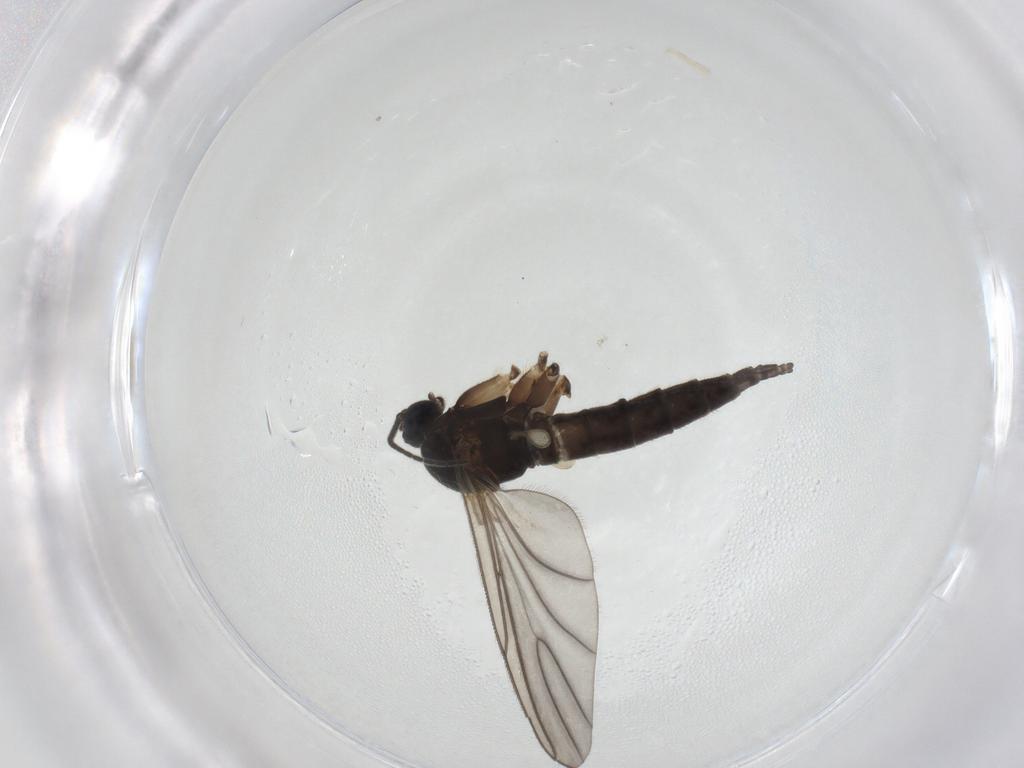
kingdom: Animalia
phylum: Arthropoda
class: Insecta
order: Diptera
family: Sciaridae
